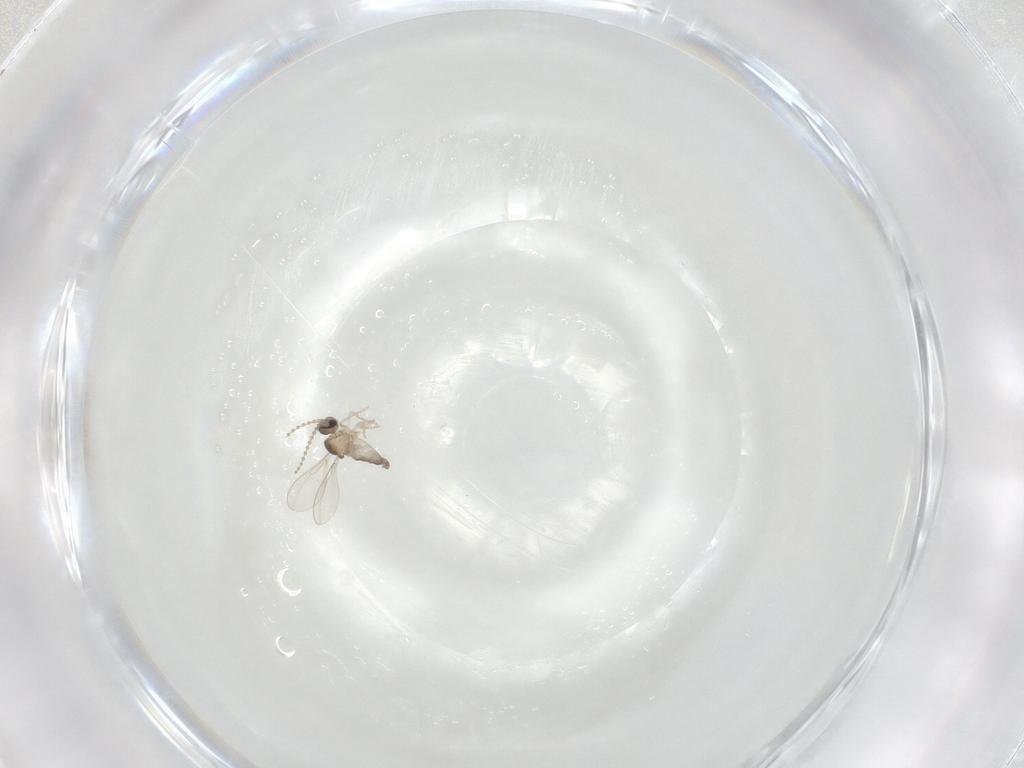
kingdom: Animalia
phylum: Arthropoda
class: Insecta
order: Diptera
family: Cecidomyiidae
